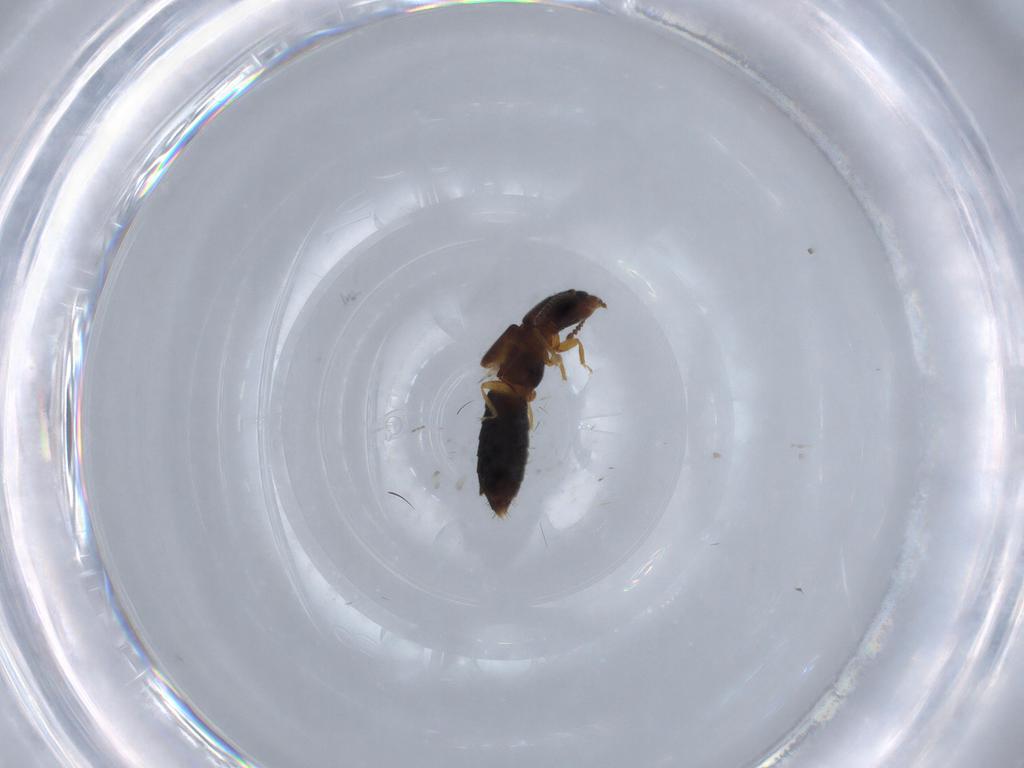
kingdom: Animalia
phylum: Arthropoda
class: Insecta
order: Coleoptera
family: Staphylinidae
